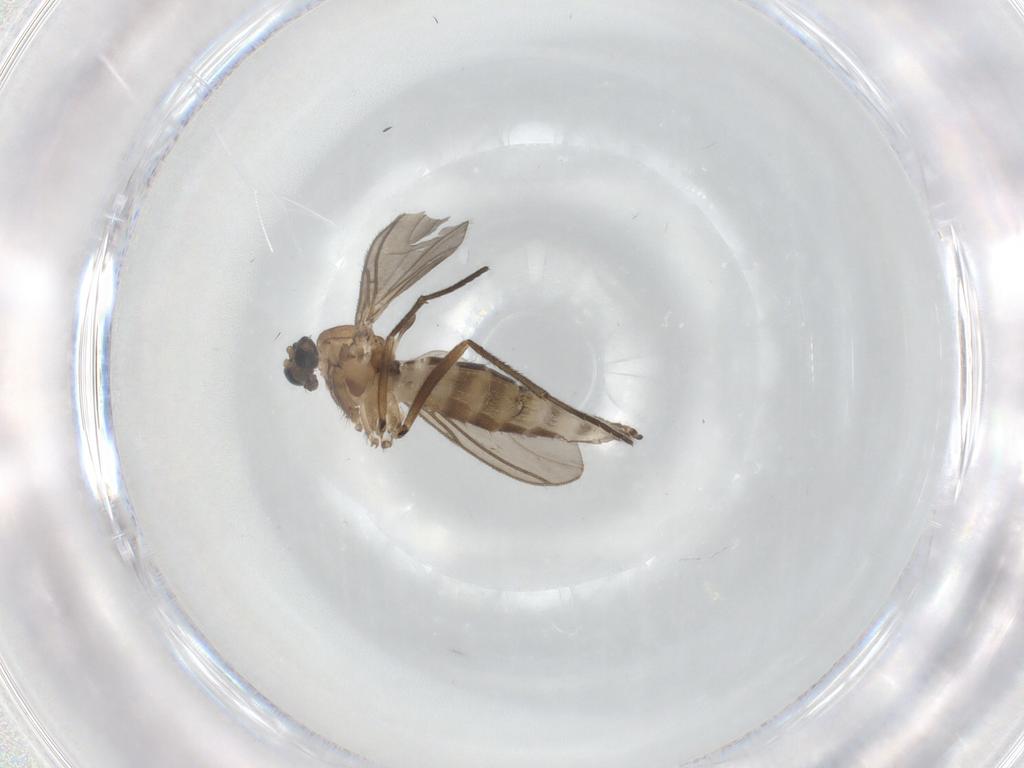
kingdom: Animalia
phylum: Arthropoda
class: Insecta
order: Diptera
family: Sciaridae
